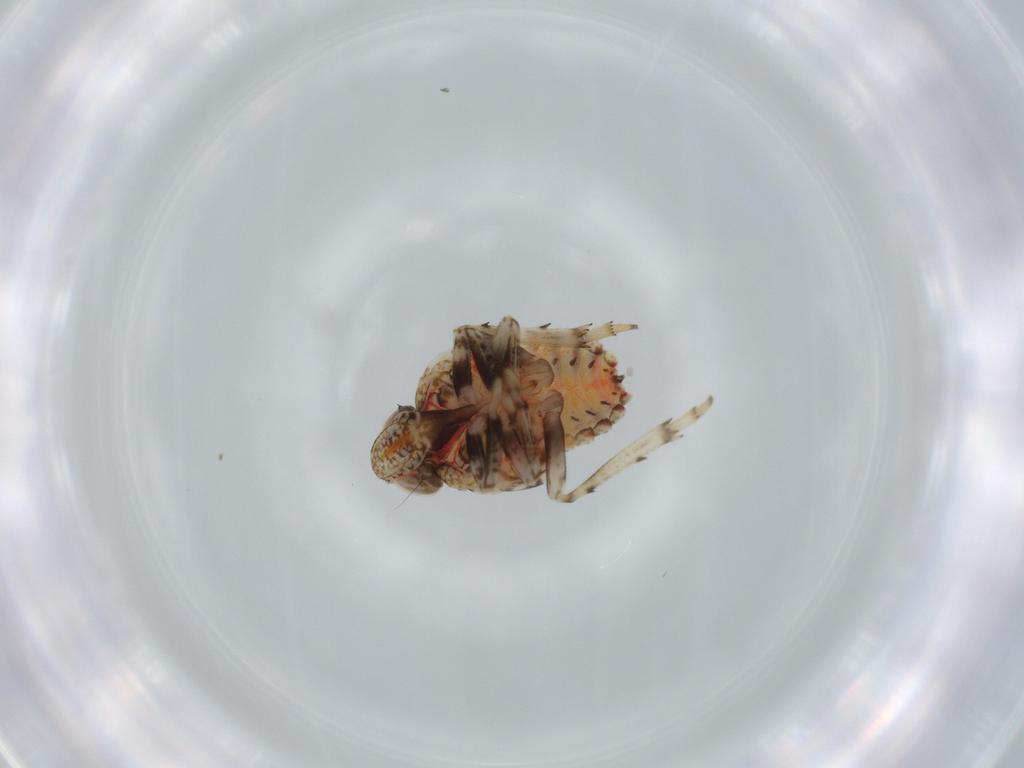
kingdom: Animalia
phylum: Arthropoda
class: Insecta
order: Hemiptera
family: Issidae
